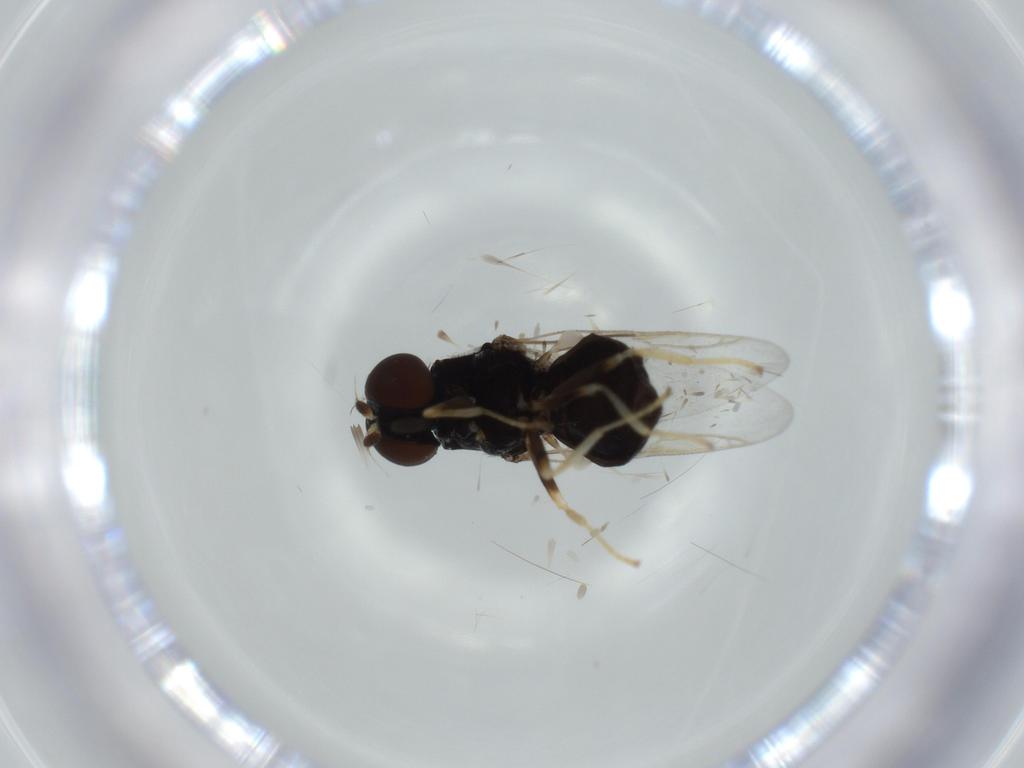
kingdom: Animalia
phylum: Arthropoda
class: Insecta
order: Diptera
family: Stratiomyidae
